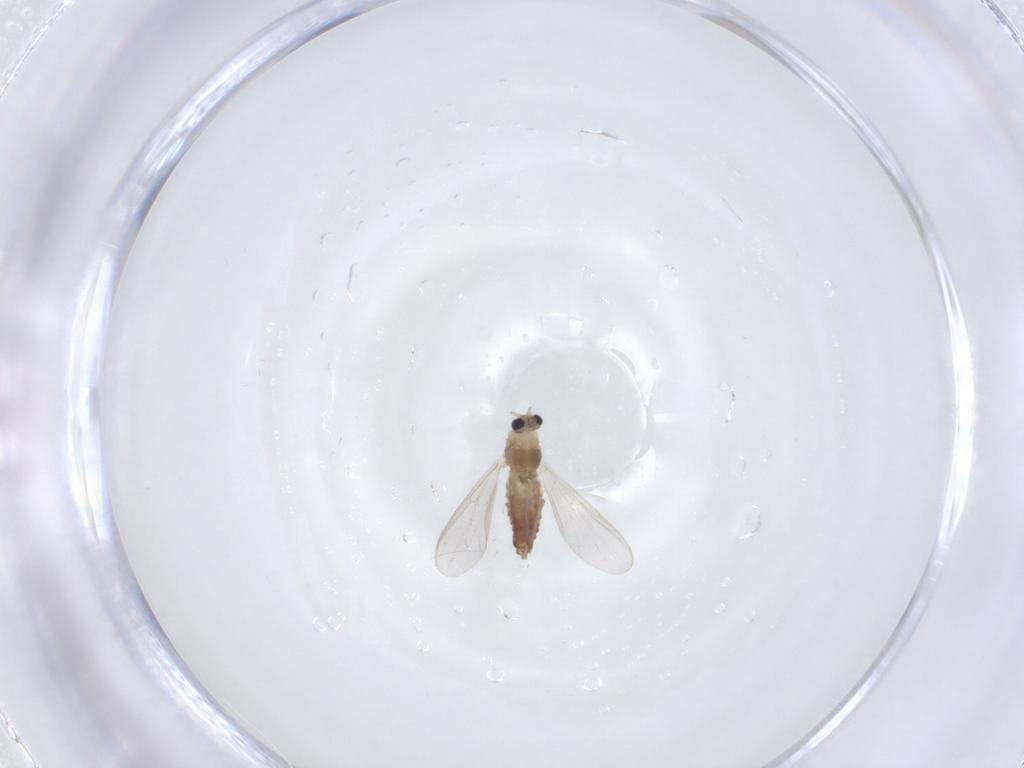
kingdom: Animalia
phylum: Arthropoda
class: Insecta
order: Diptera
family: Chironomidae
